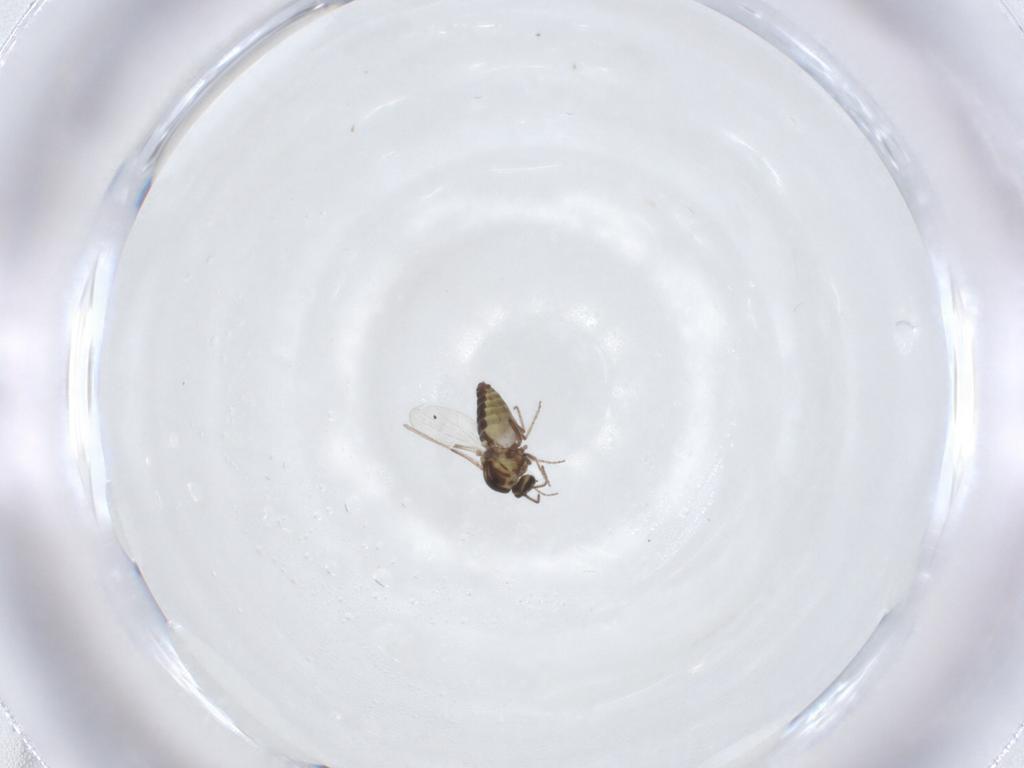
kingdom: Animalia
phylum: Arthropoda
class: Insecta
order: Diptera
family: Ceratopogonidae
